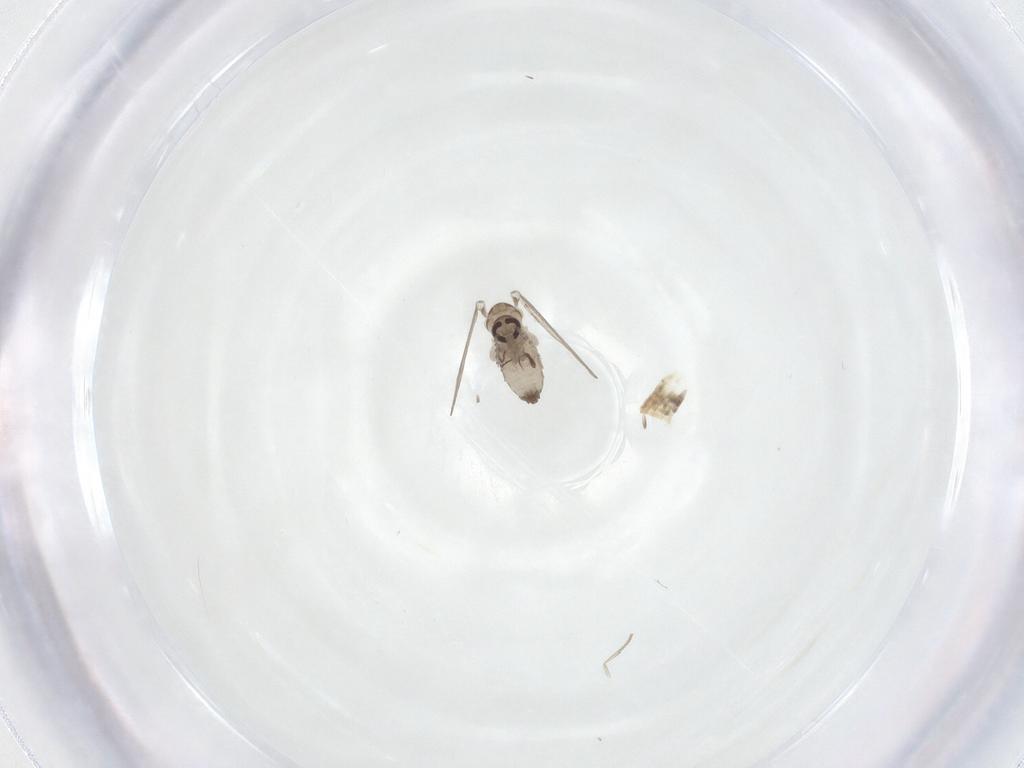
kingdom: Animalia
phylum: Arthropoda
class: Insecta
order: Diptera
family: Psychodidae
